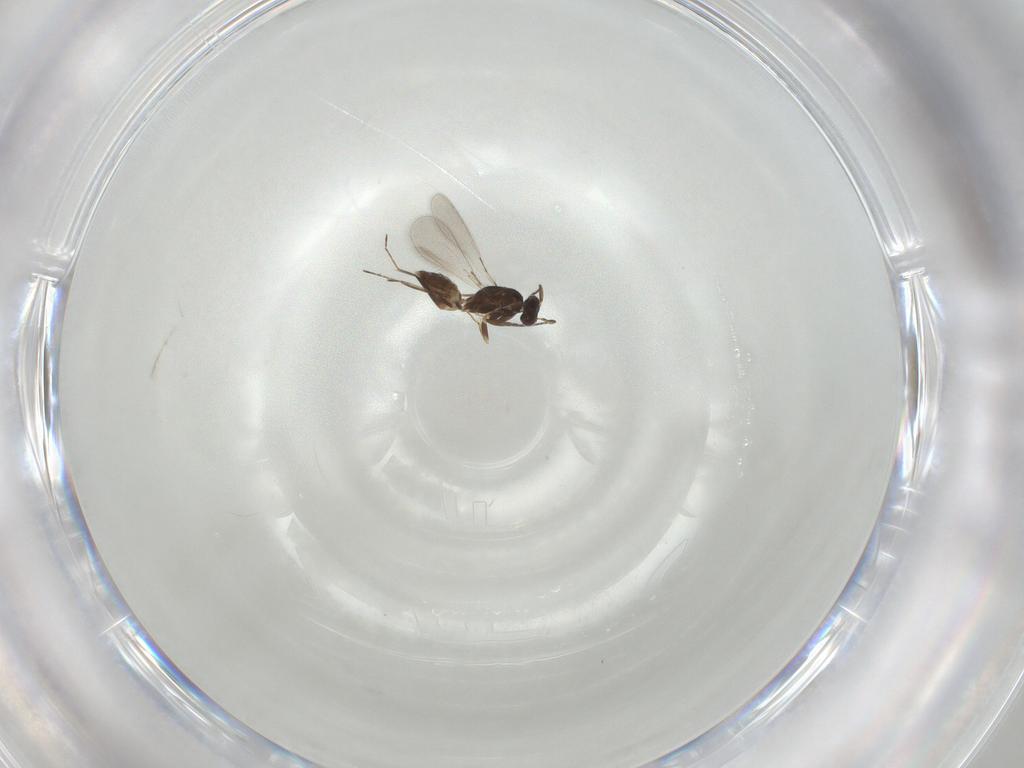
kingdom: Animalia
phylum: Arthropoda
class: Insecta
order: Hymenoptera
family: Mymaridae
